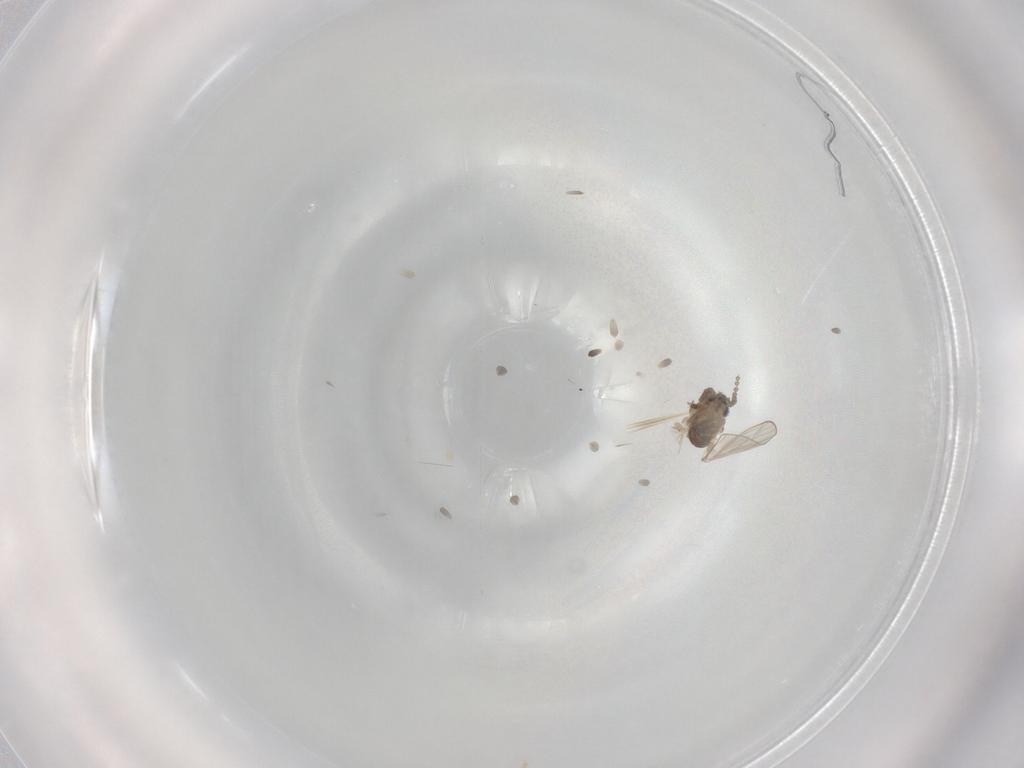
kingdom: Animalia
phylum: Arthropoda
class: Insecta
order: Diptera
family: Psychodidae
